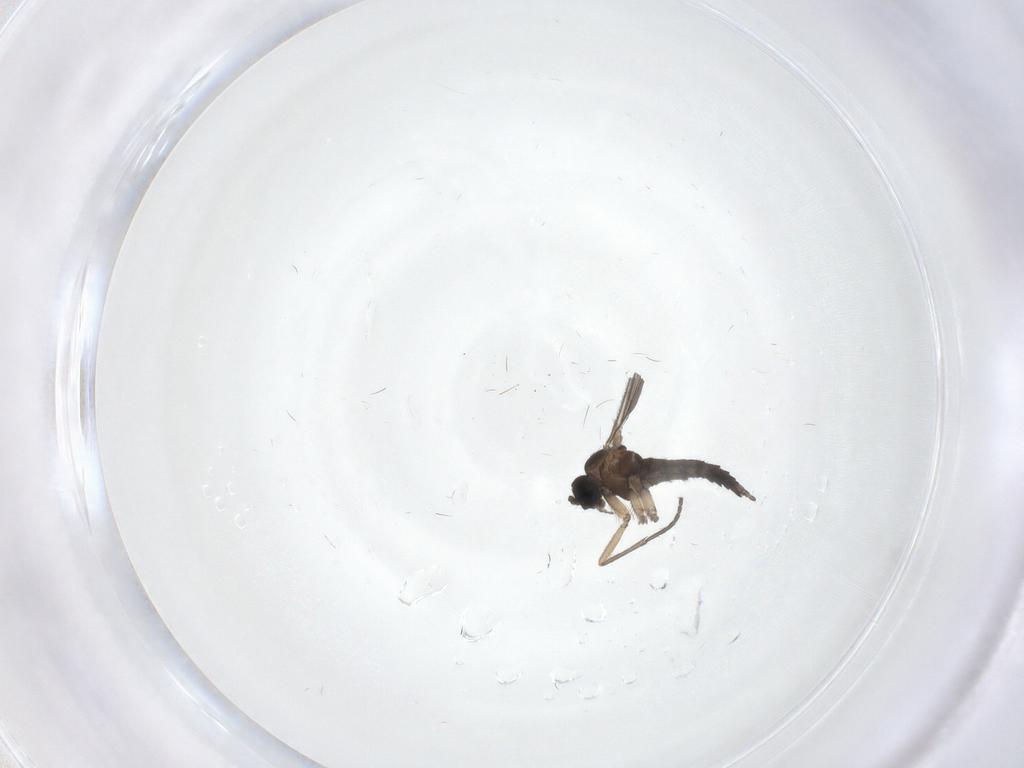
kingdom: Animalia
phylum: Arthropoda
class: Insecta
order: Diptera
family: Sciaridae
